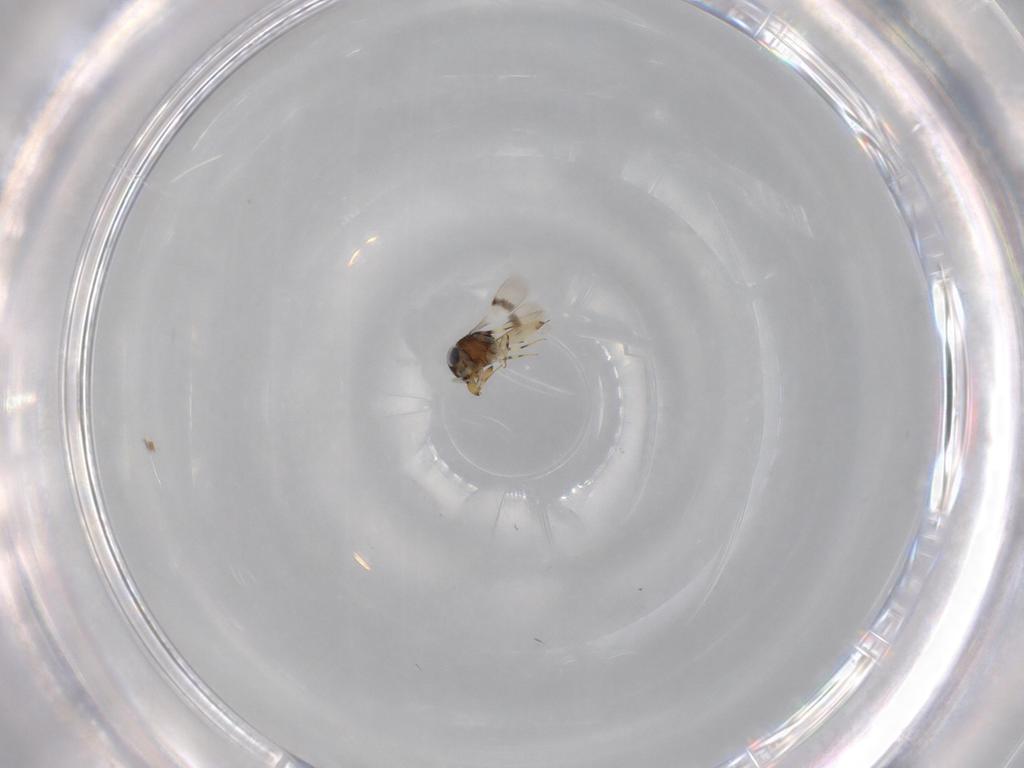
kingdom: Animalia
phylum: Arthropoda
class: Insecta
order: Hymenoptera
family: Scelionidae
